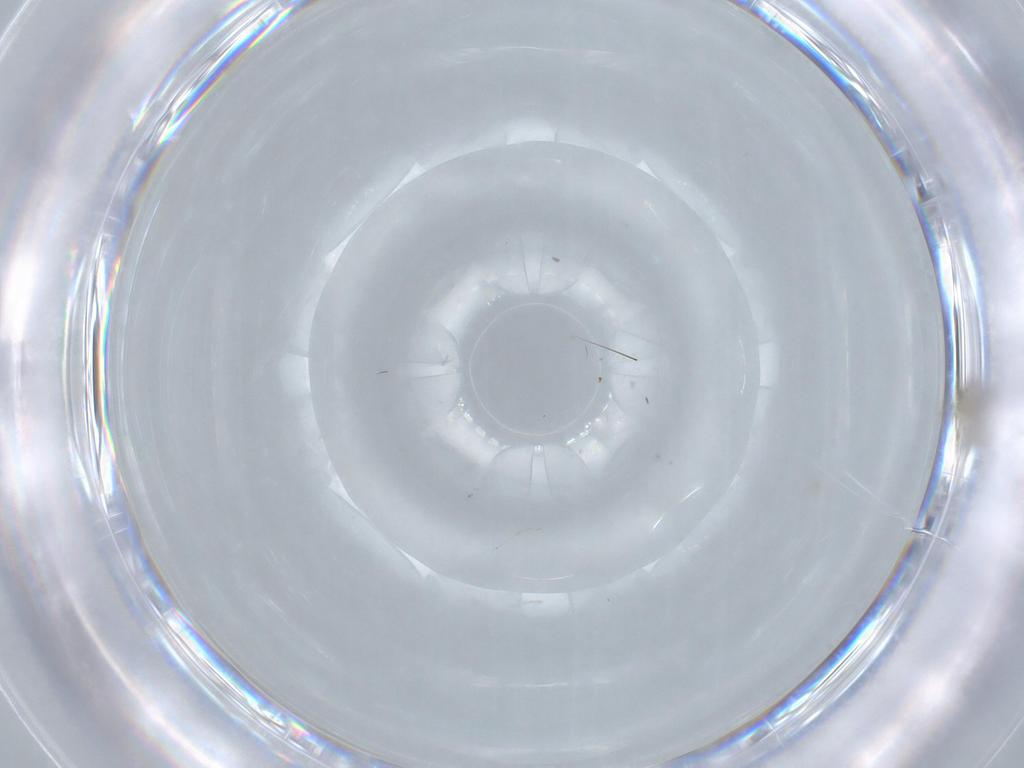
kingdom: Animalia
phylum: Arthropoda
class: Insecta
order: Diptera
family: Cecidomyiidae
